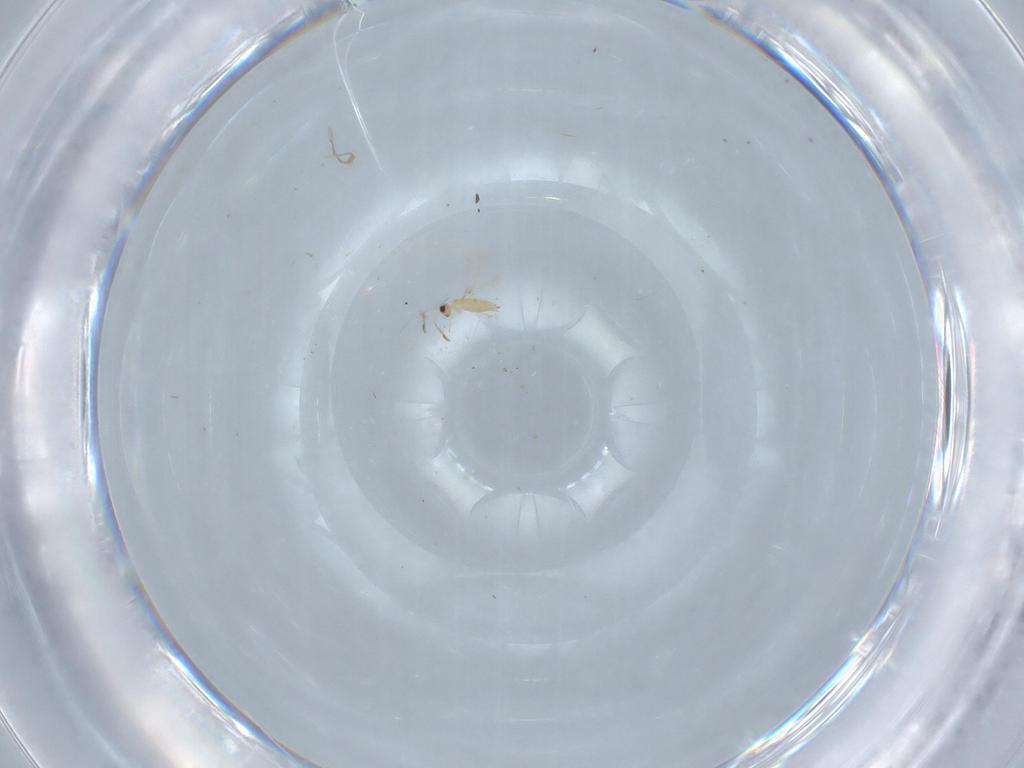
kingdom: Animalia
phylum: Arthropoda
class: Insecta
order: Hymenoptera
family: Mymaridae
